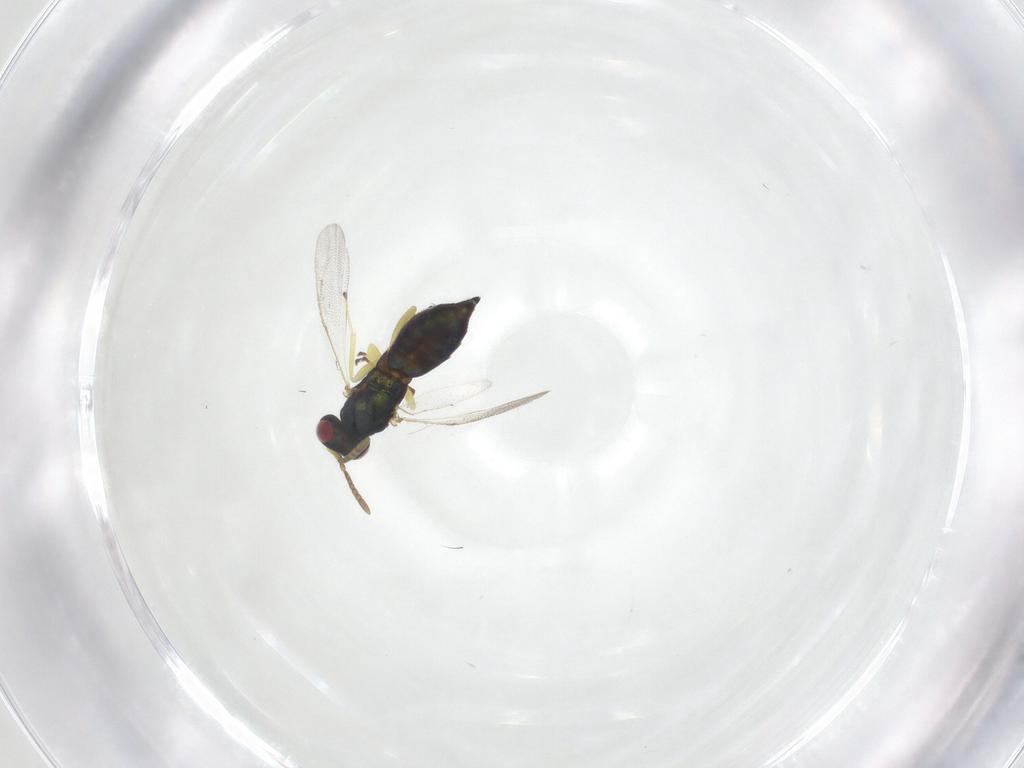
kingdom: Animalia
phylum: Arthropoda
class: Insecta
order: Hymenoptera
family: Pteromalidae
